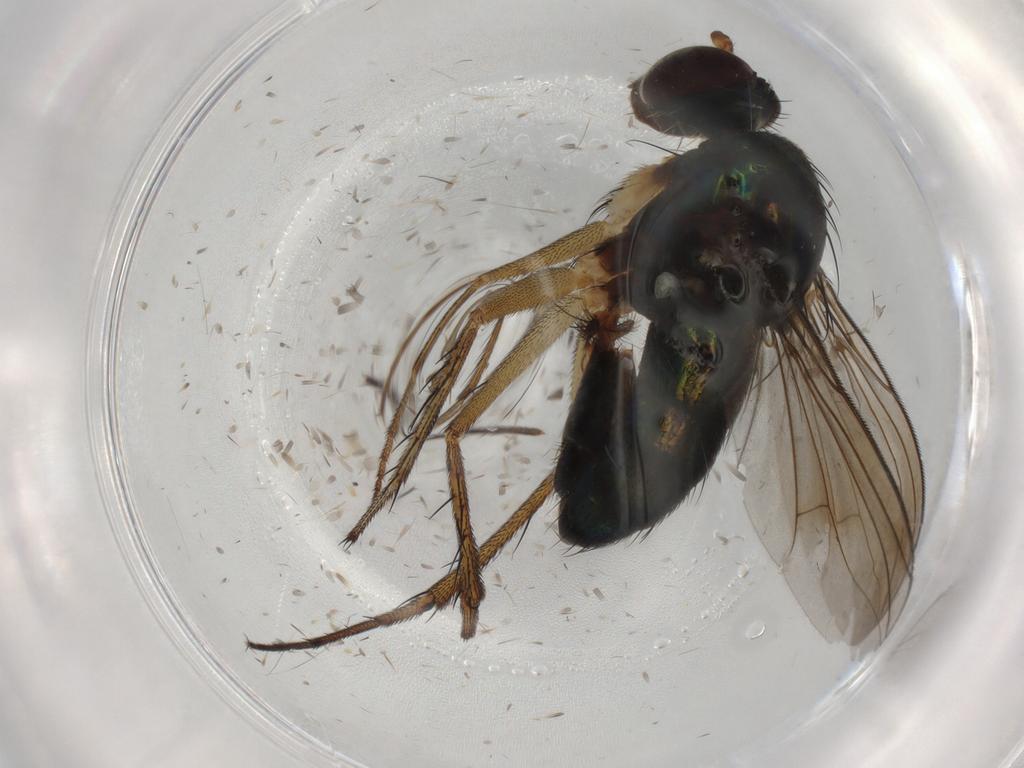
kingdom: Animalia
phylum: Arthropoda
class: Insecta
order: Diptera
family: Dolichopodidae
